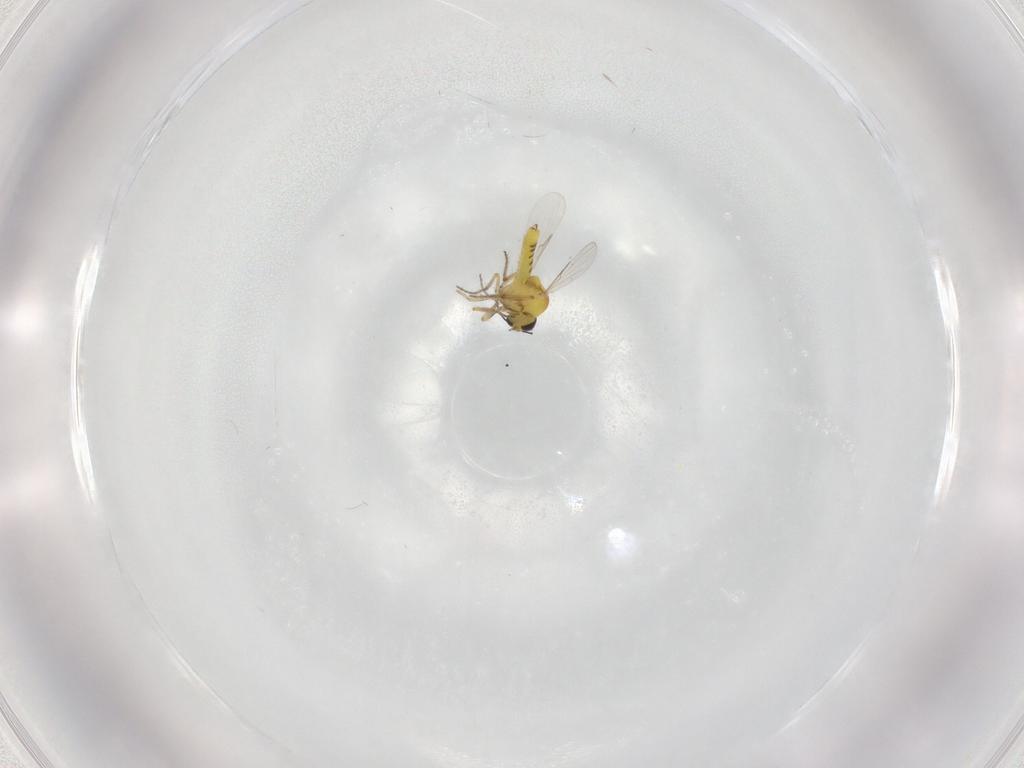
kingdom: Animalia
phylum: Arthropoda
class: Insecta
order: Diptera
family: Ceratopogonidae
